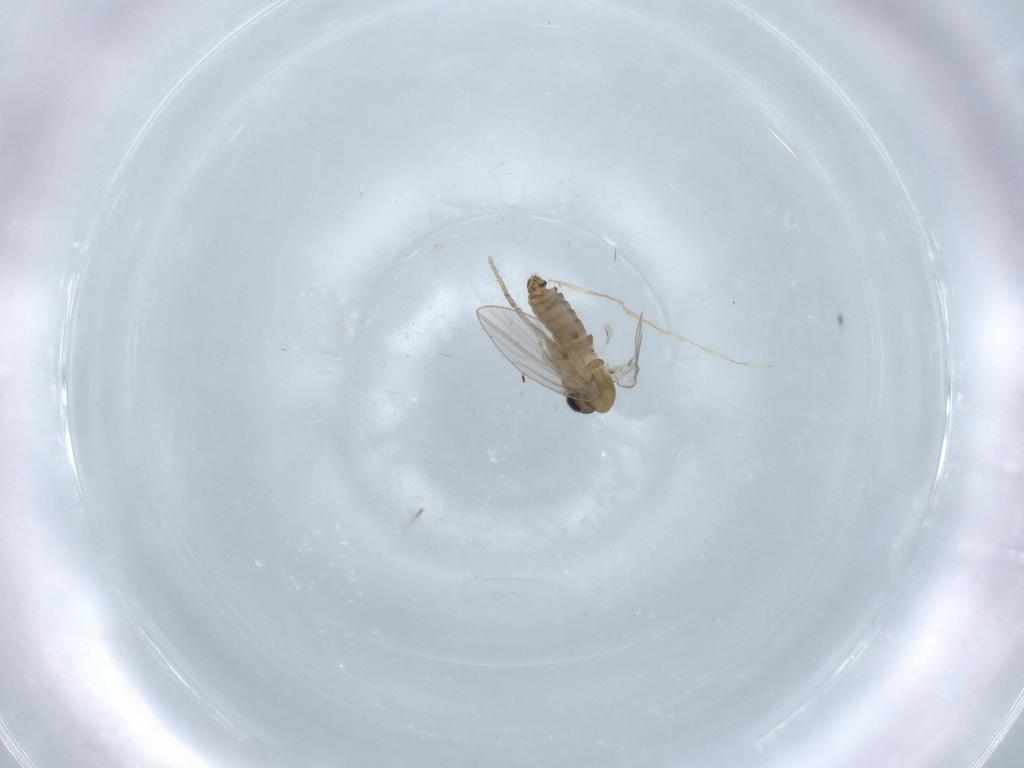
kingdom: Animalia
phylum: Arthropoda
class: Insecta
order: Diptera
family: Psychodidae
